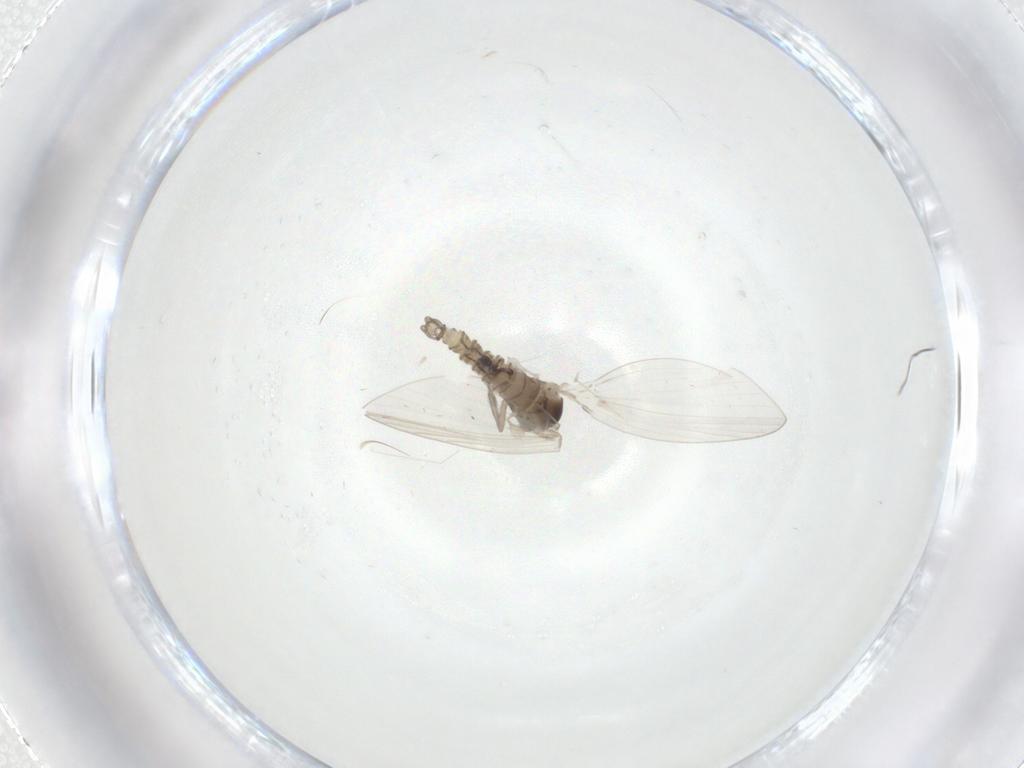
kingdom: Animalia
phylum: Arthropoda
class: Insecta
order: Diptera
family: Psychodidae
